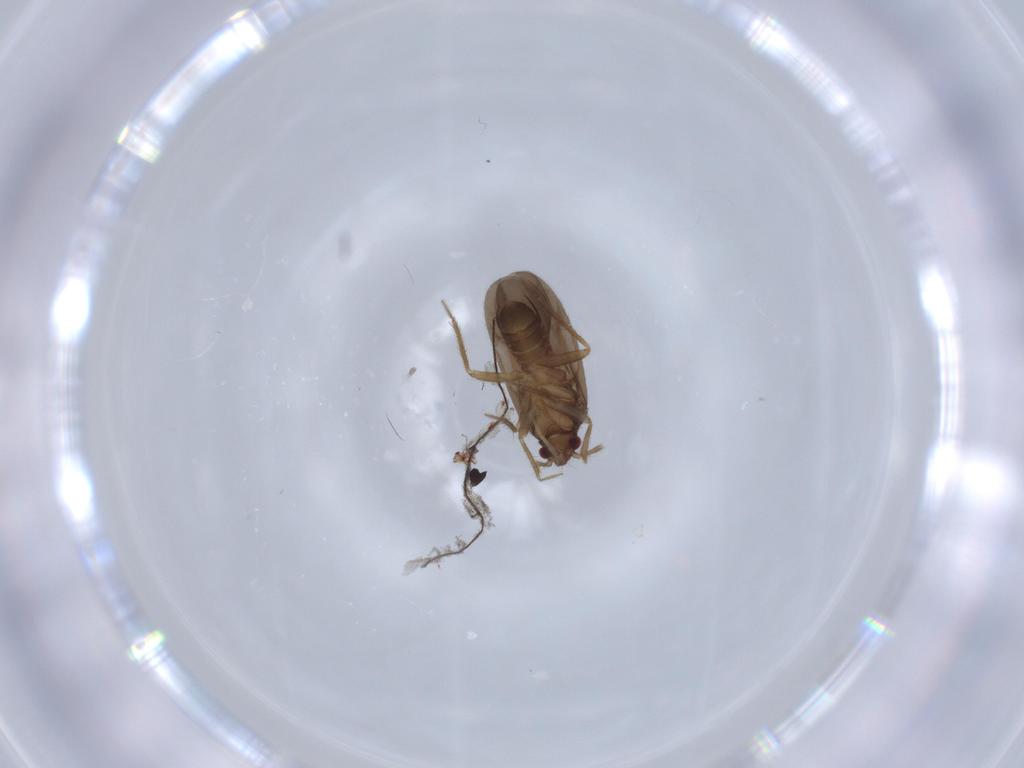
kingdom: Animalia
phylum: Arthropoda
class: Insecta
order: Hemiptera
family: Ceratocombidae
